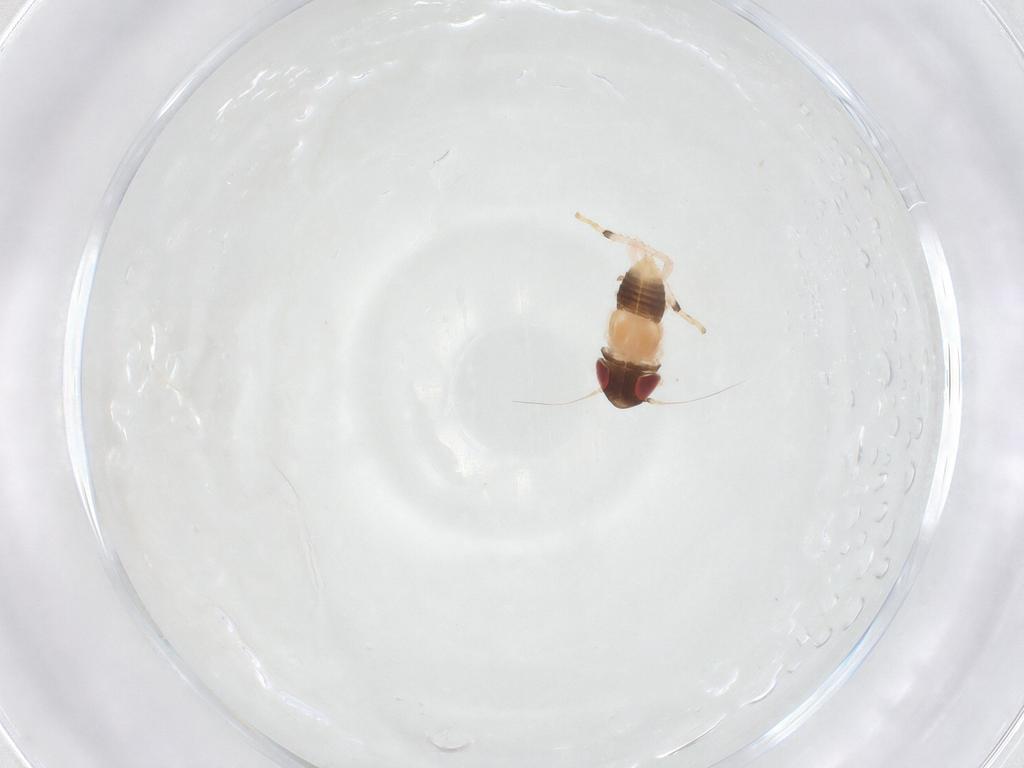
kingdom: Animalia
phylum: Arthropoda
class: Insecta
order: Hemiptera
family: Cicadellidae
